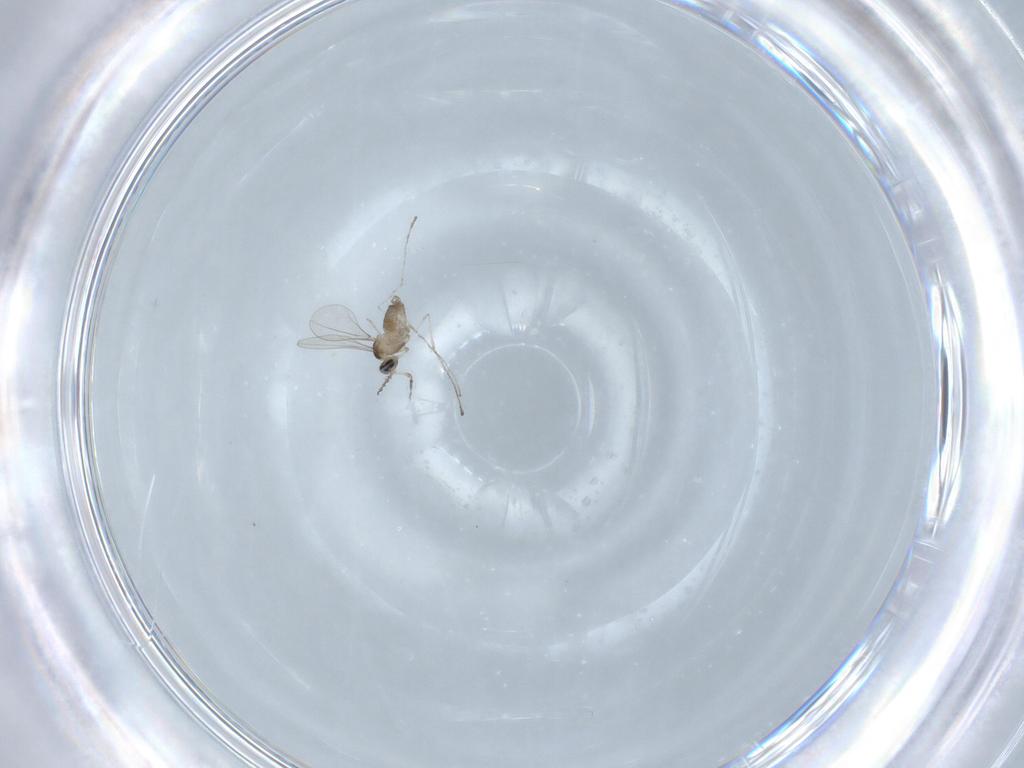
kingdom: Animalia
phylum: Arthropoda
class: Insecta
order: Diptera
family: Cecidomyiidae
